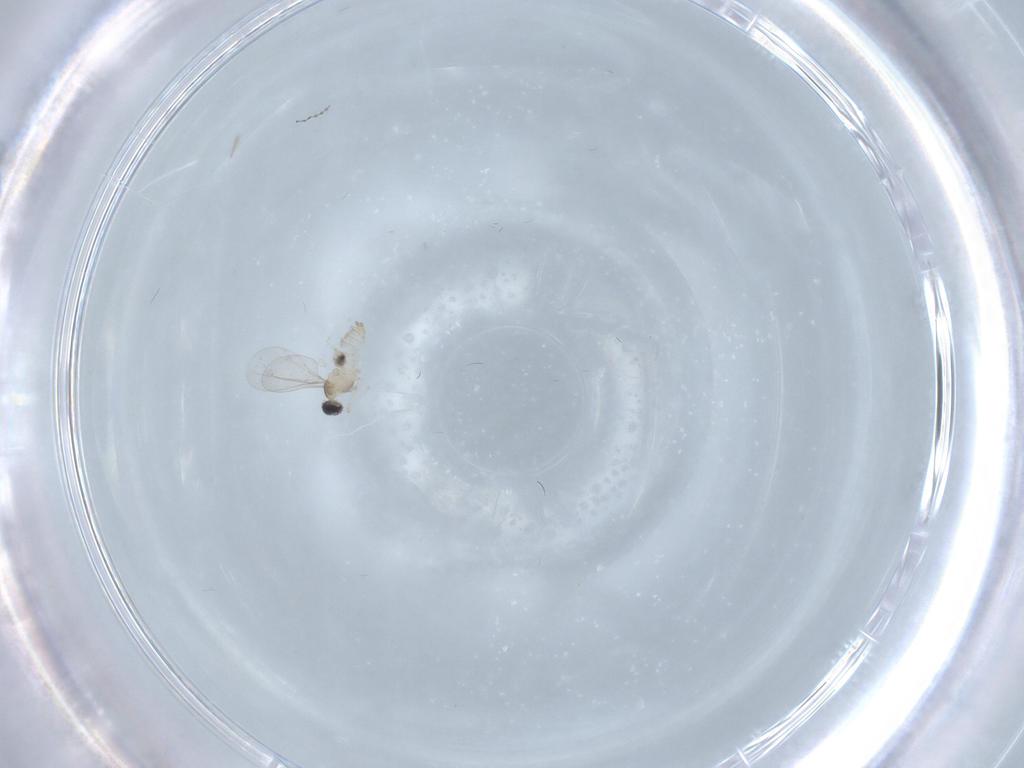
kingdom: Animalia
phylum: Arthropoda
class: Insecta
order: Diptera
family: Cecidomyiidae
